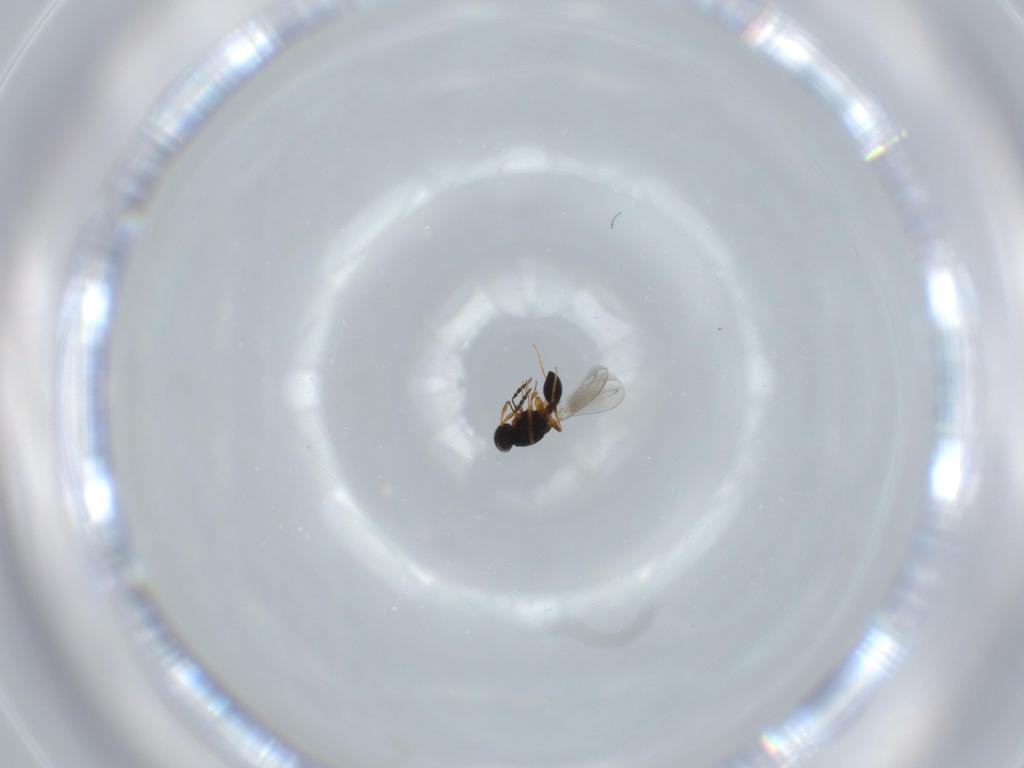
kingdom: Animalia
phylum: Arthropoda
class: Insecta
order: Hymenoptera
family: Platygastridae
